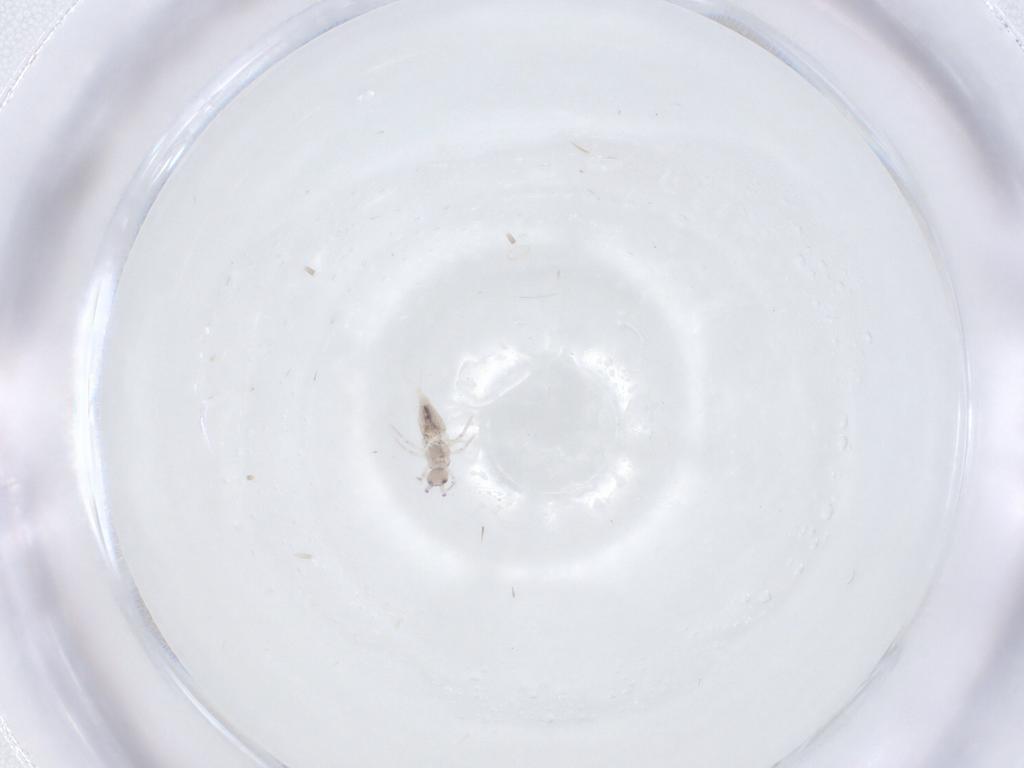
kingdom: Animalia
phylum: Arthropoda
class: Collembola
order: Entomobryomorpha
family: Paronellidae
